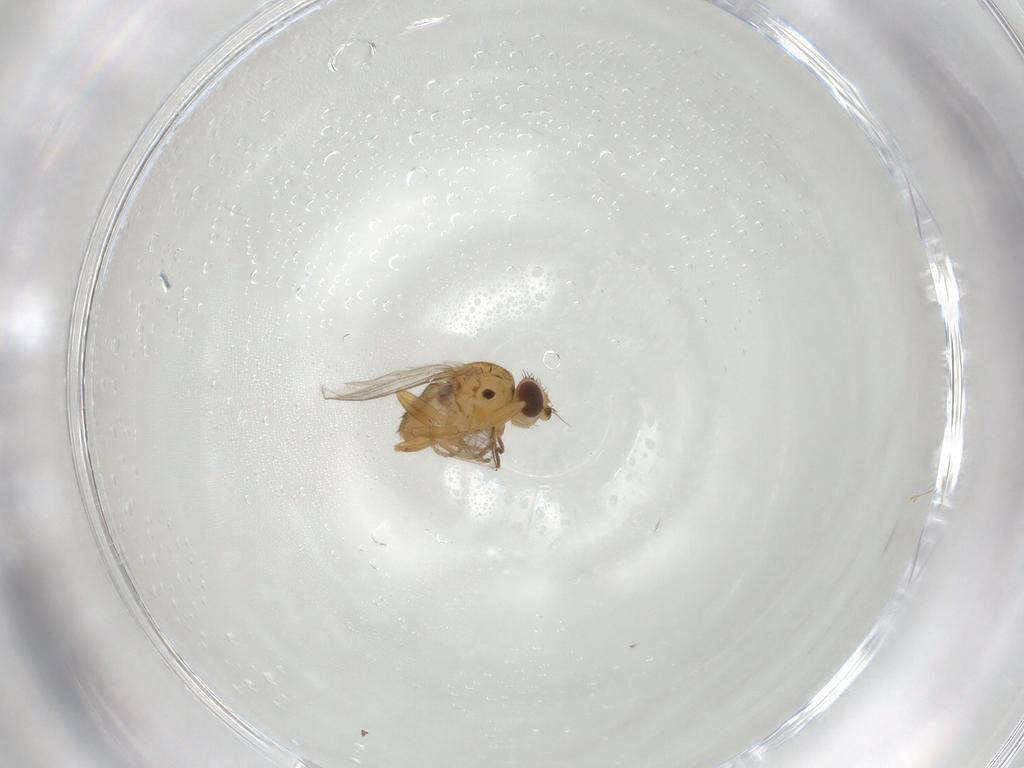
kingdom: Animalia
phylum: Arthropoda
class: Insecta
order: Diptera
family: Chloropidae
